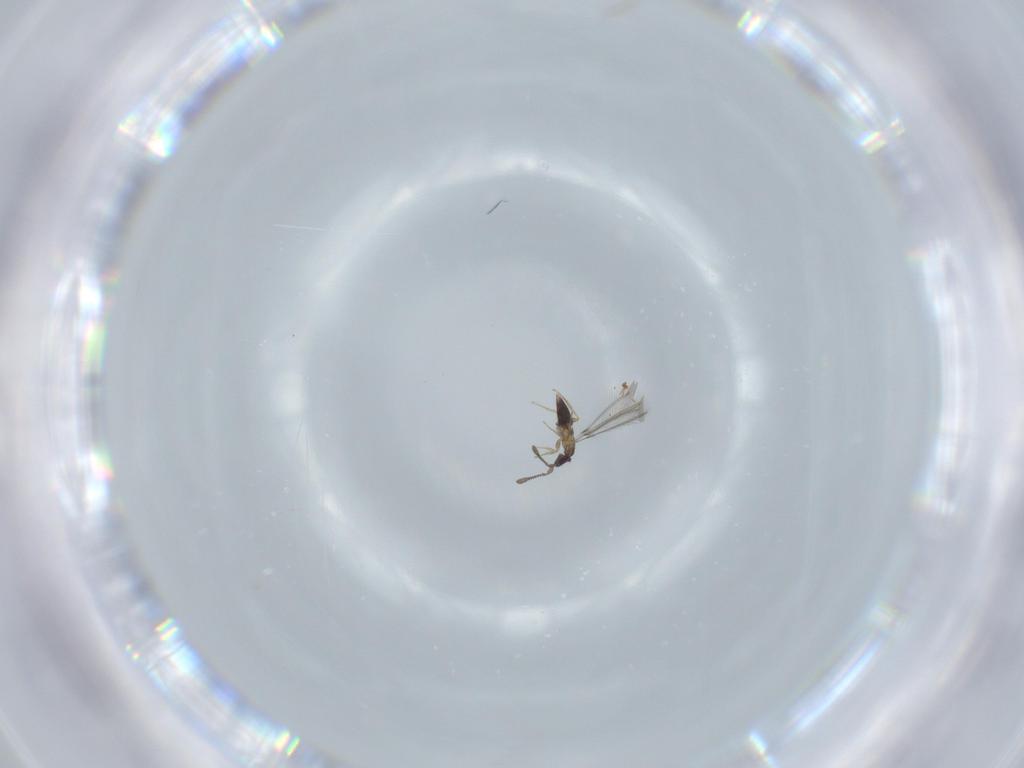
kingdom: Animalia
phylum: Arthropoda
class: Insecta
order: Hymenoptera
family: Mymaridae
